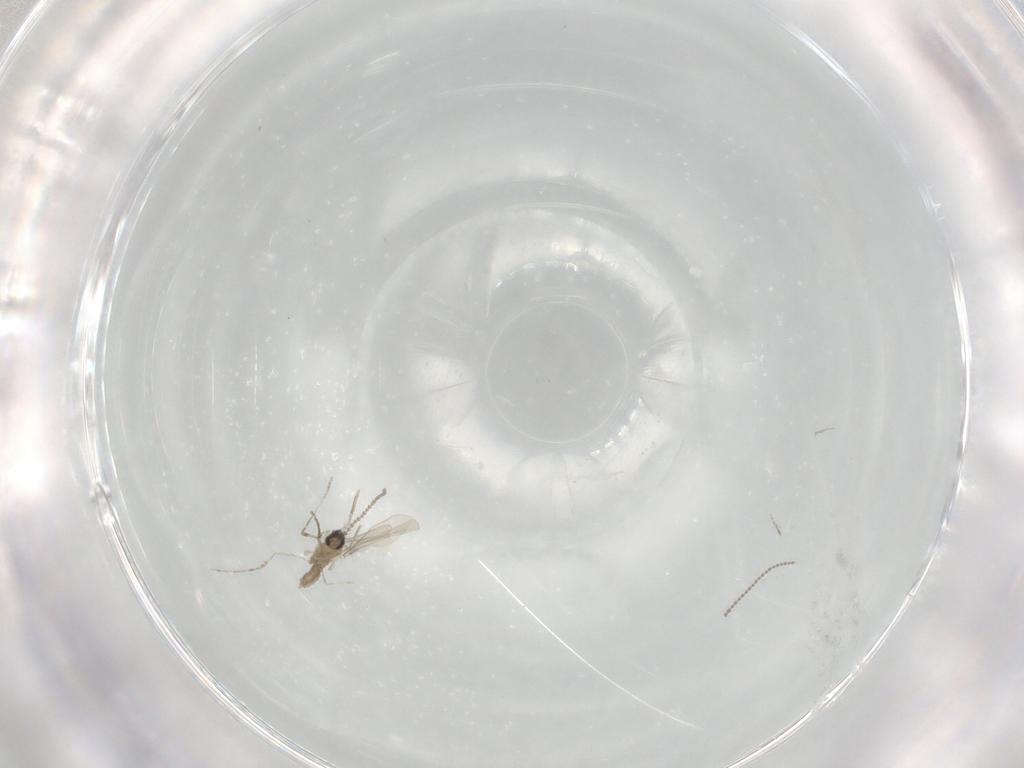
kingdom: Animalia
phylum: Arthropoda
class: Insecta
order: Diptera
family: Cecidomyiidae
